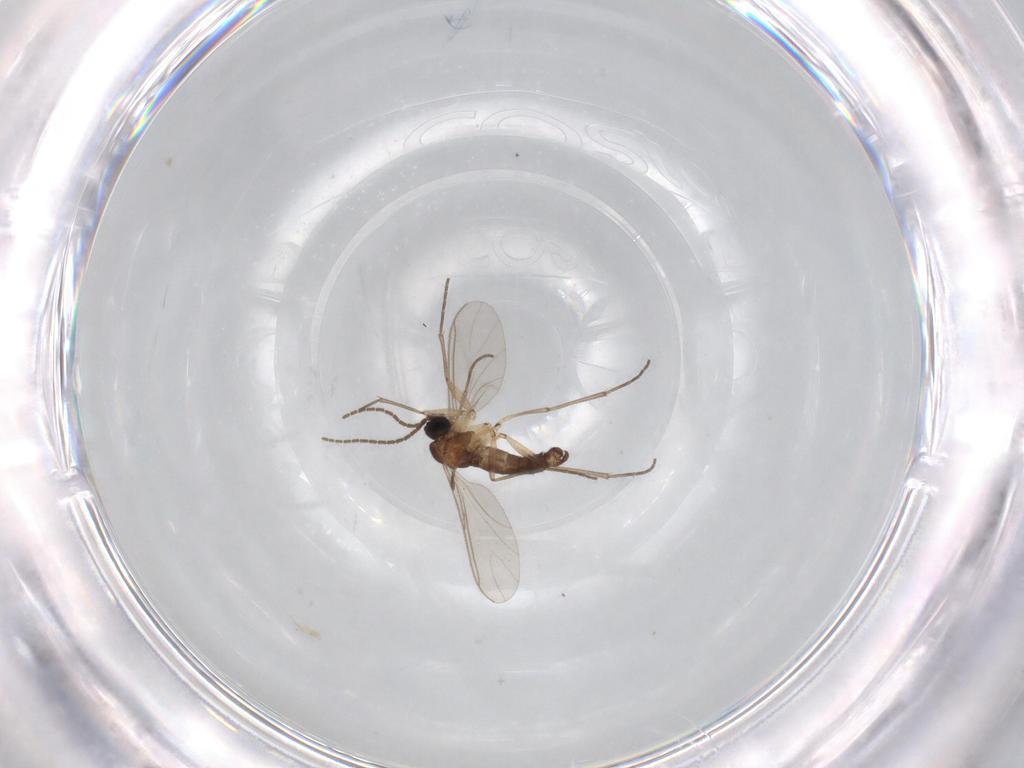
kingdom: Animalia
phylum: Arthropoda
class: Insecta
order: Diptera
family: Sciaridae
